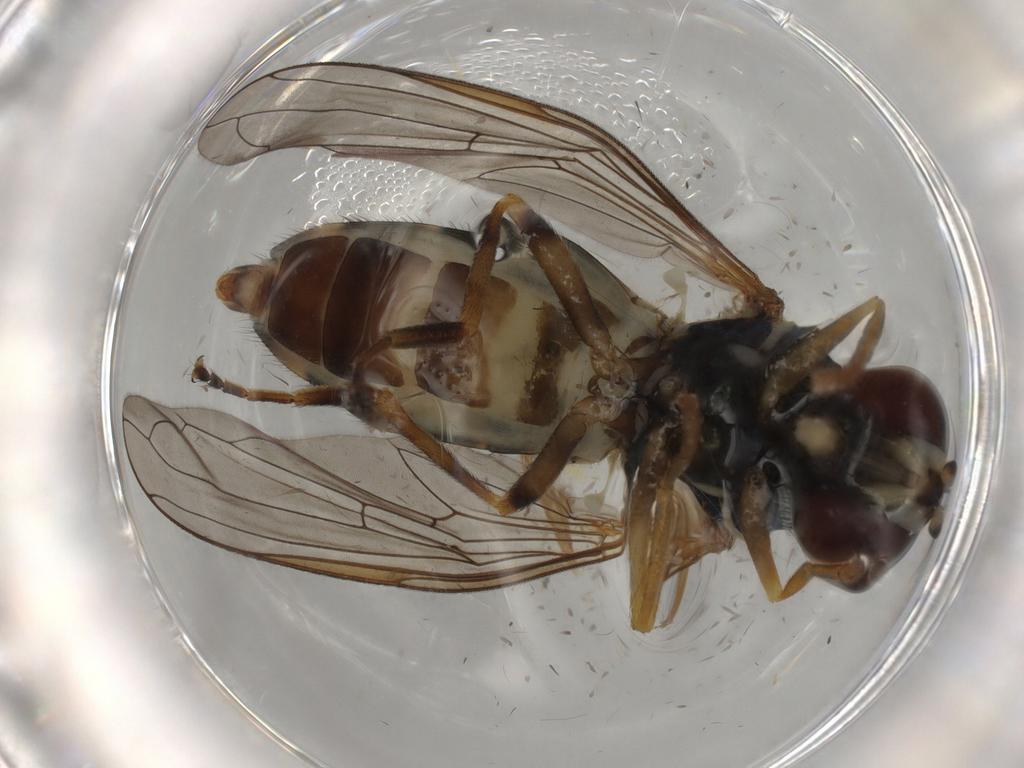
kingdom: Animalia
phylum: Arthropoda
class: Insecta
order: Diptera
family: Syrphidae
